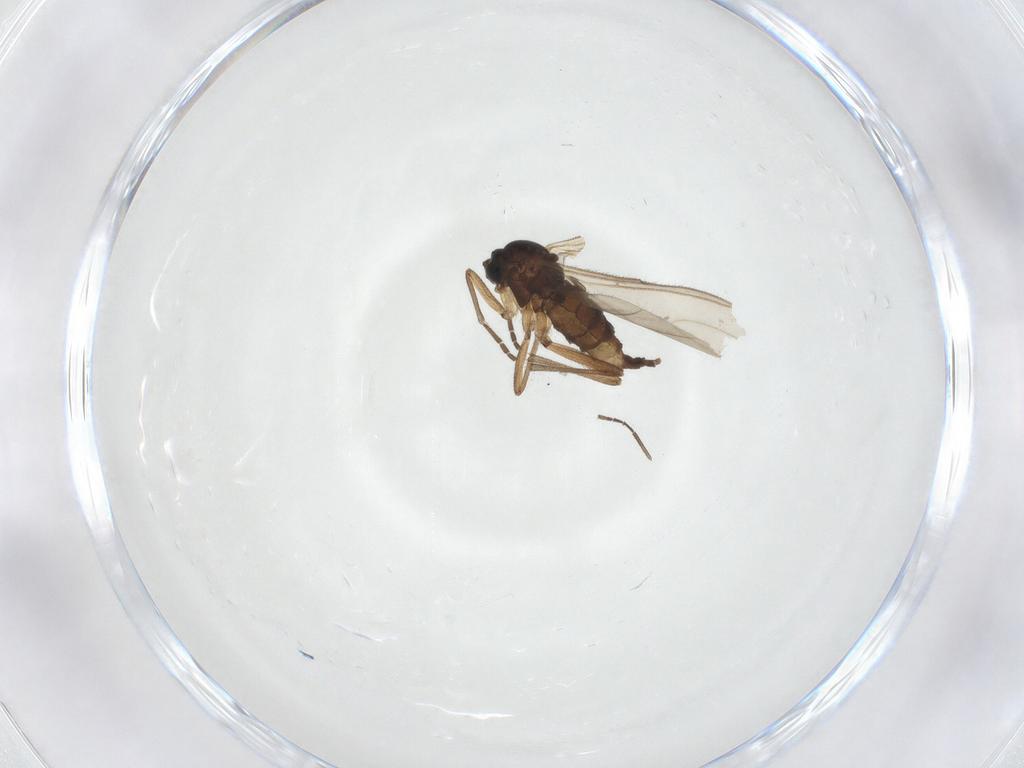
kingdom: Animalia
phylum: Arthropoda
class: Insecta
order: Diptera
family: Sciaridae
